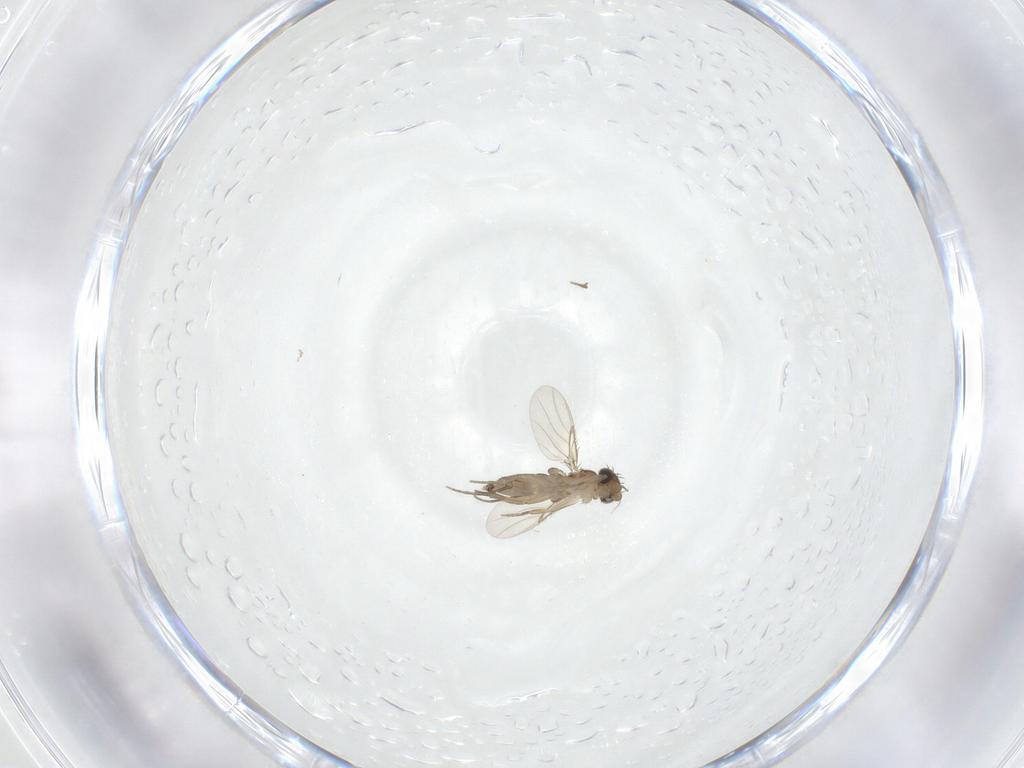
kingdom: Animalia
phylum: Arthropoda
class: Insecta
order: Diptera
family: Phoridae
